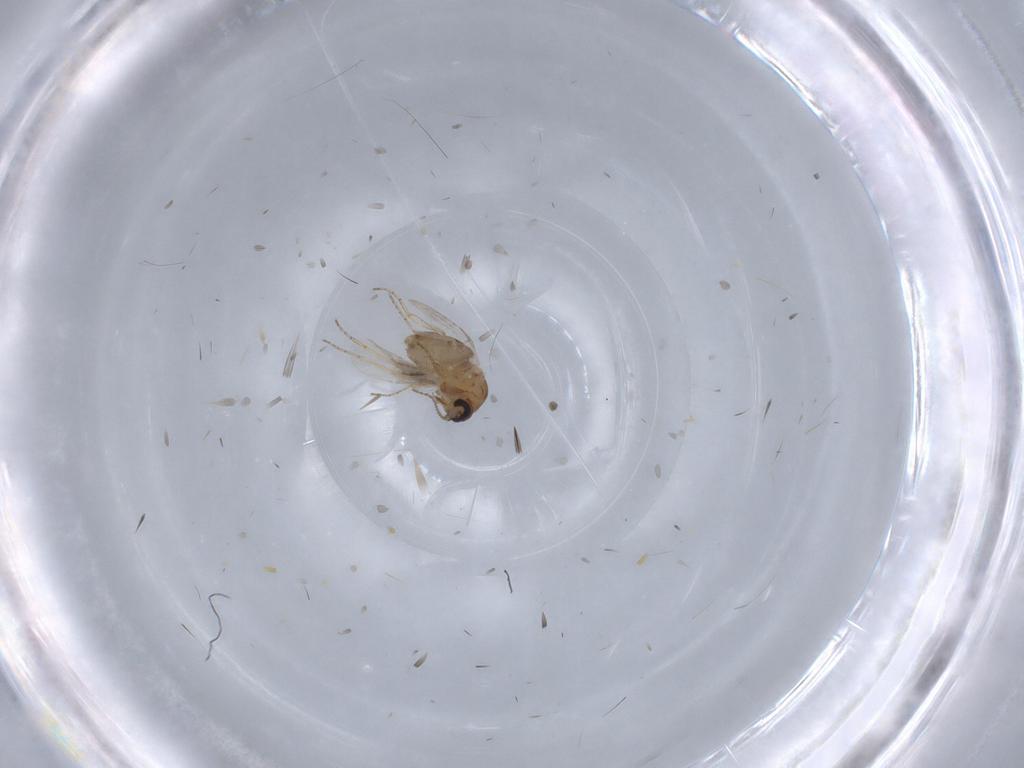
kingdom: Animalia
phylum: Arthropoda
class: Insecta
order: Diptera
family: Ceratopogonidae
